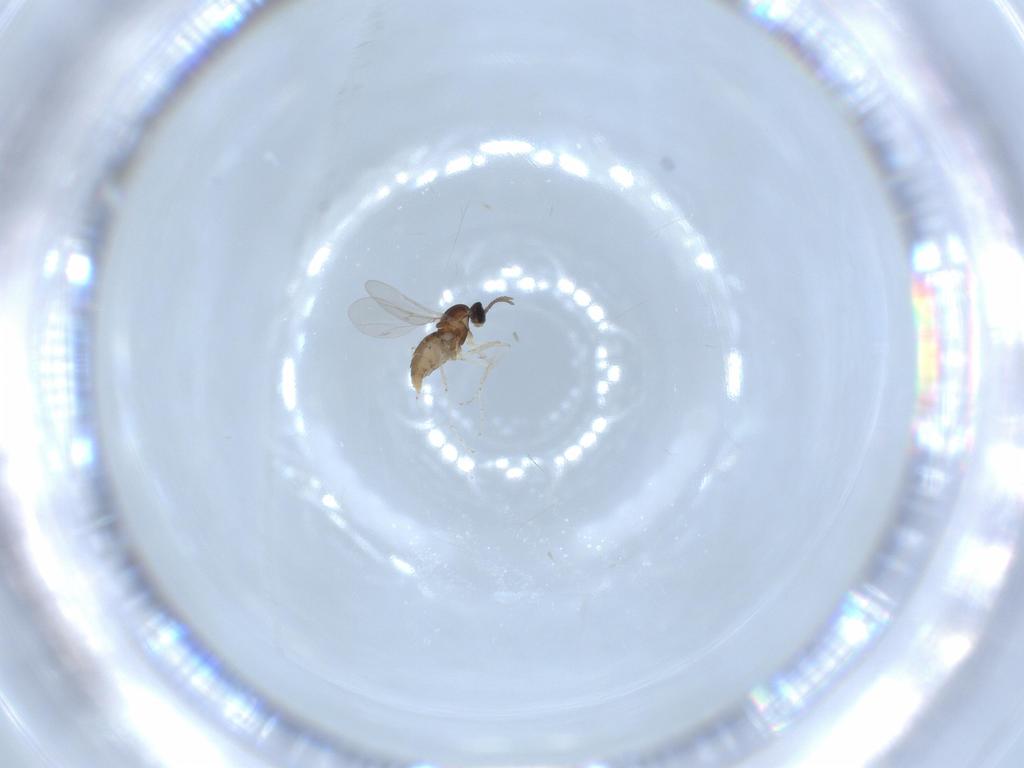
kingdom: Animalia
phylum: Arthropoda
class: Insecta
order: Diptera
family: Cecidomyiidae
